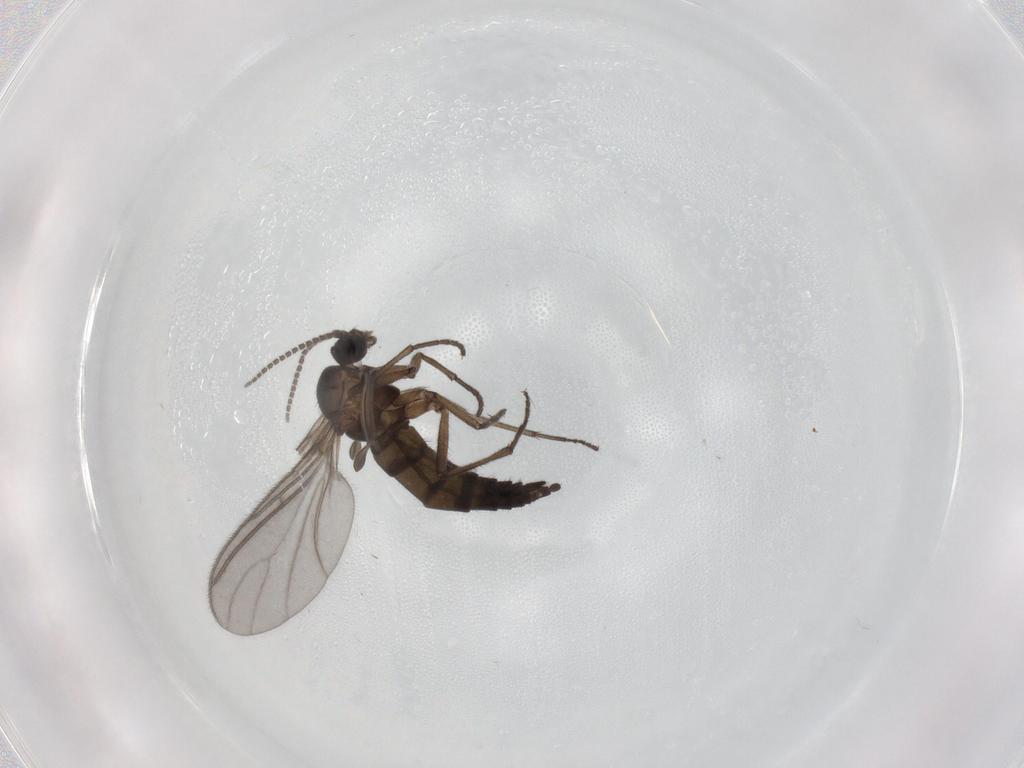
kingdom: Animalia
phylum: Arthropoda
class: Insecta
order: Diptera
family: Sciaridae
